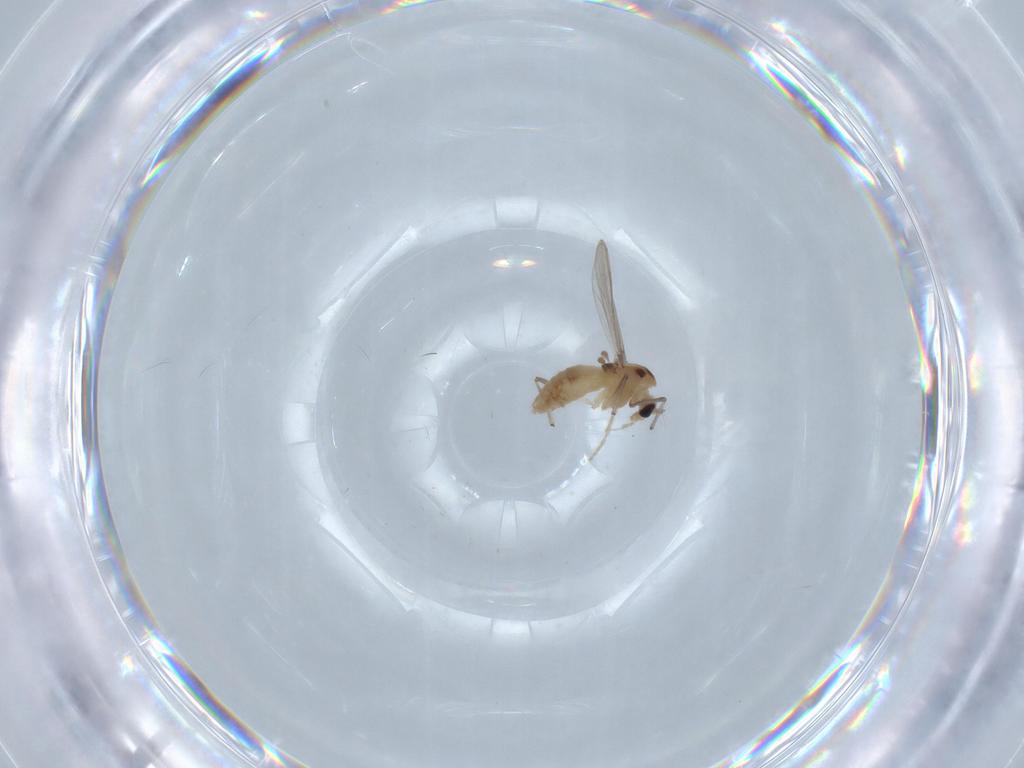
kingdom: Animalia
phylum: Arthropoda
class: Insecta
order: Diptera
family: Chironomidae
